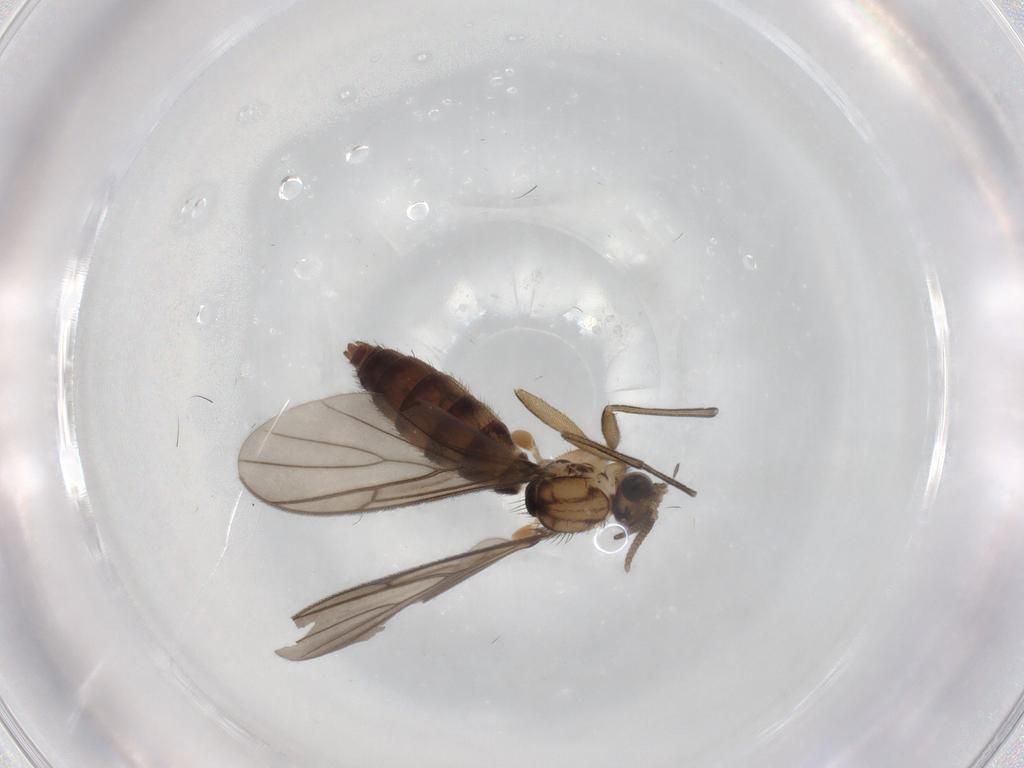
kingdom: Animalia
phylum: Arthropoda
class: Insecta
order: Diptera
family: Keroplatidae
